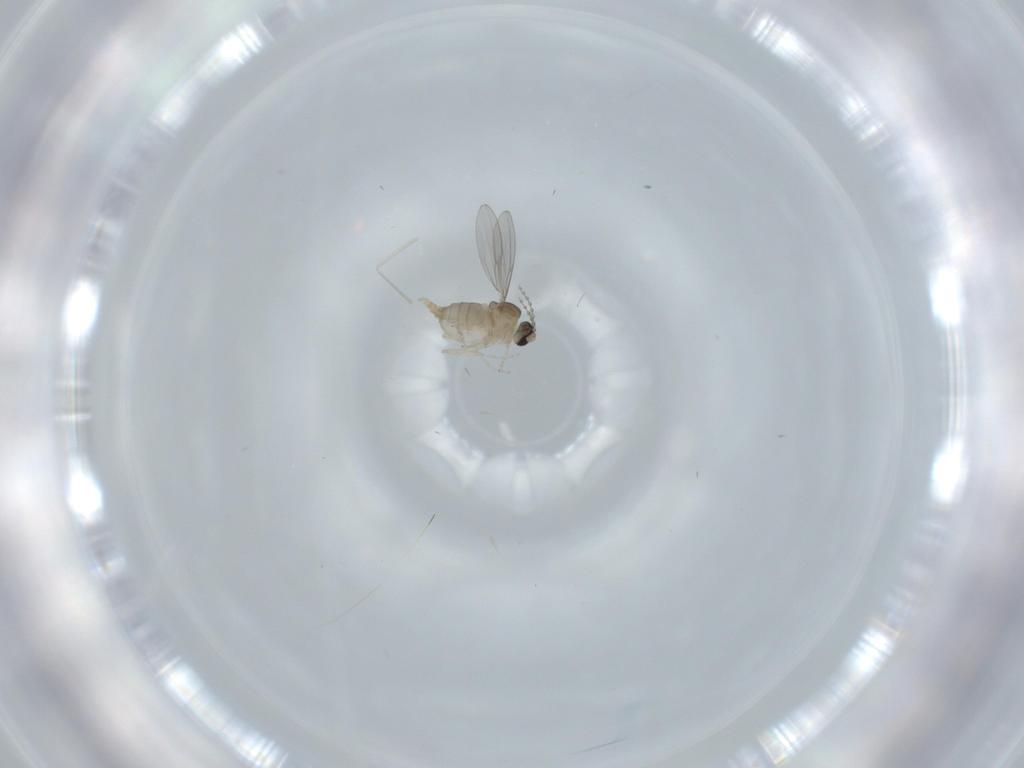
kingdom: Animalia
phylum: Arthropoda
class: Insecta
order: Diptera
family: Cecidomyiidae
